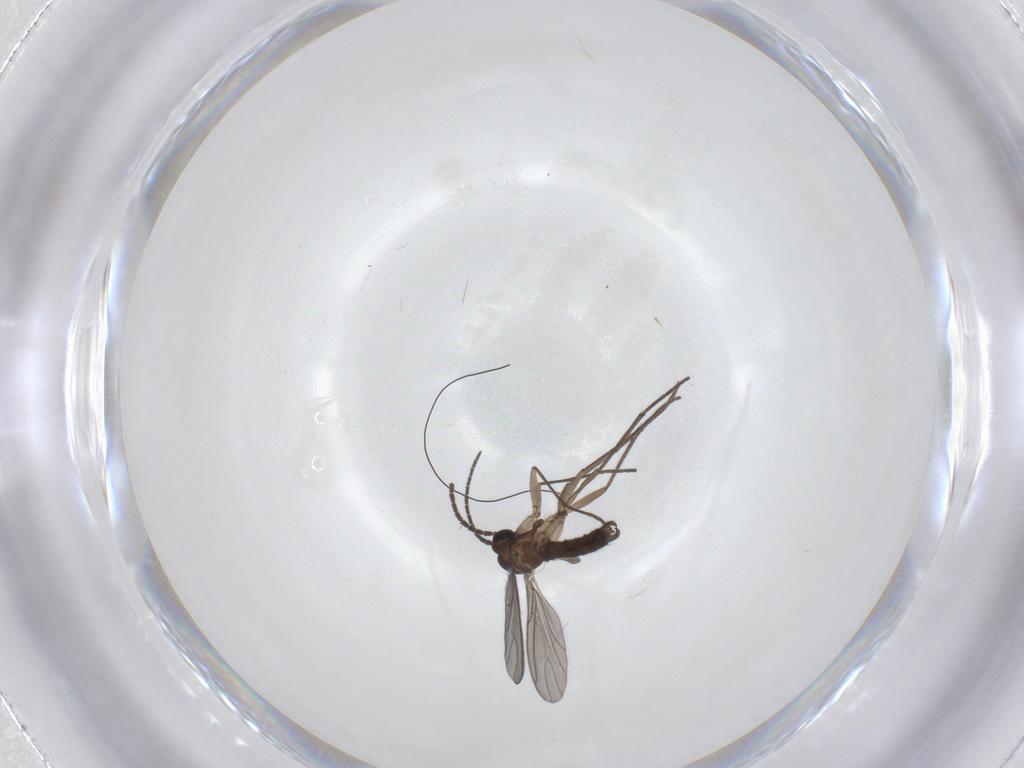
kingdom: Animalia
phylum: Arthropoda
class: Insecta
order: Diptera
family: Sciaridae
